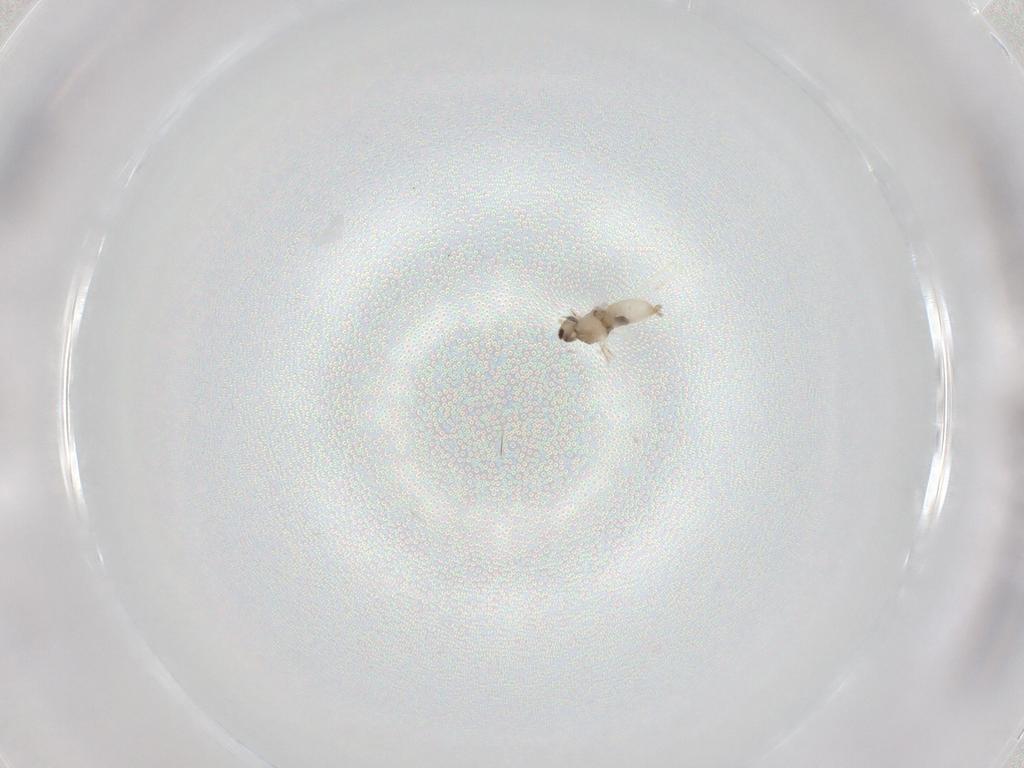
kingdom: Animalia
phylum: Arthropoda
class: Insecta
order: Diptera
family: Cecidomyiidae
